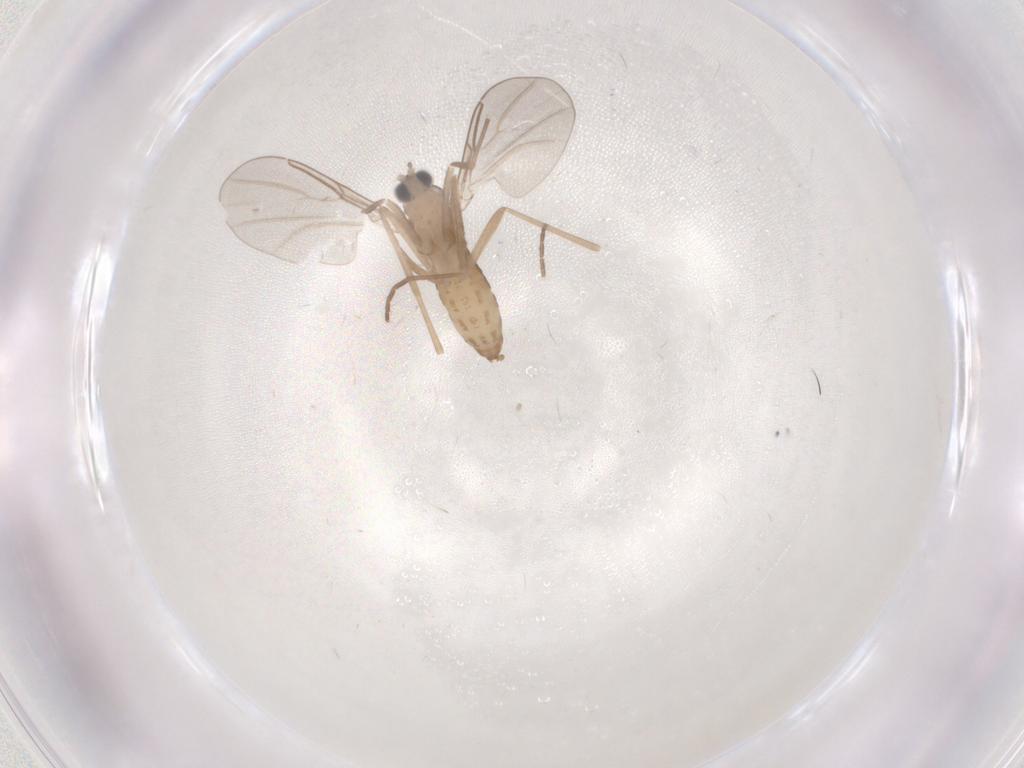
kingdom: Animalia
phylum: Arthropoda
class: Insecta
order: Diptera
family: Cecidomyiidae
